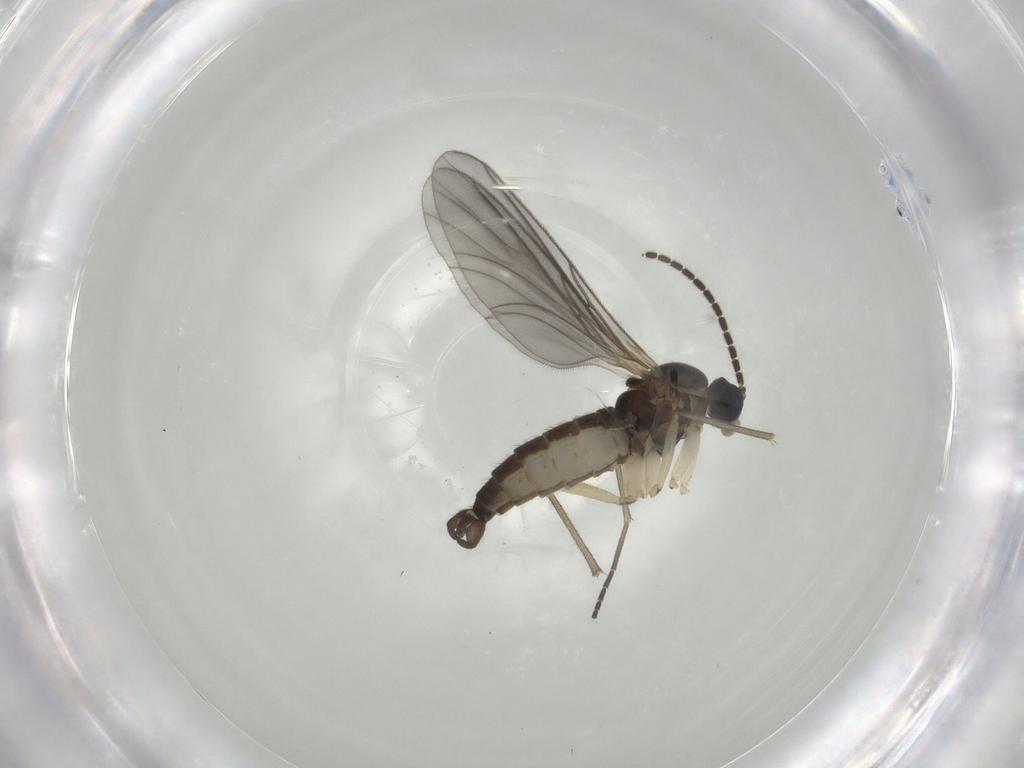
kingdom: Animalia
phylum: Arthropoda
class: Insecta
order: Diptera
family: Sciaridae
